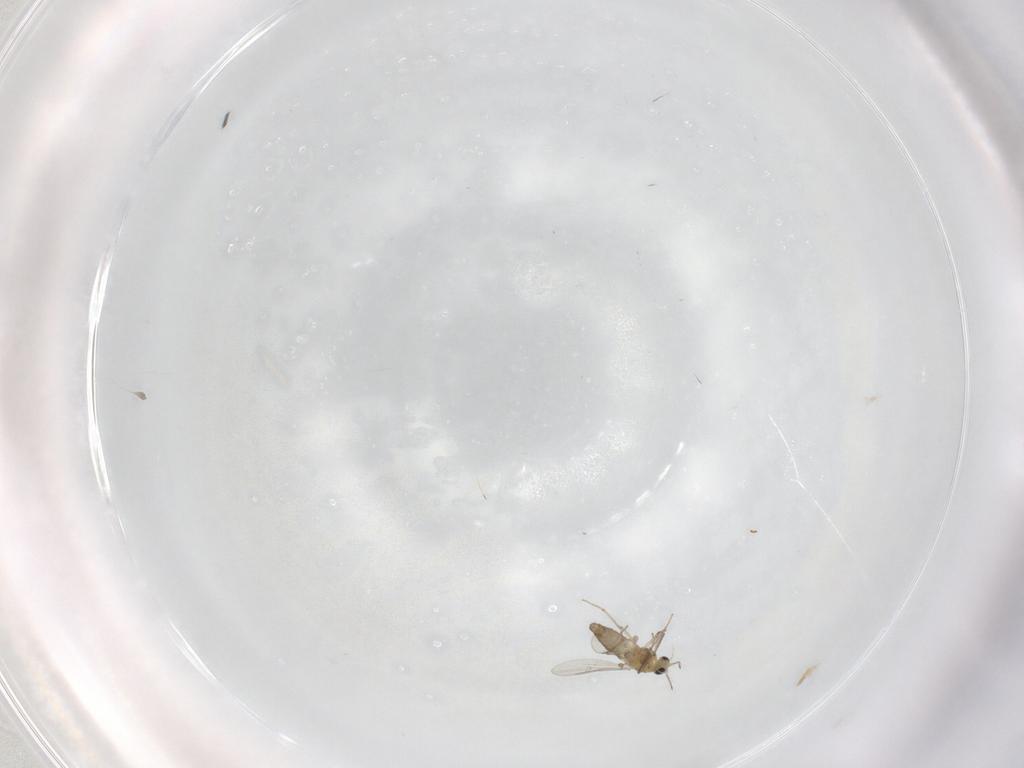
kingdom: Animalia
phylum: Arthropoda
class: Insecta
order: Diptera
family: Chironomidae
